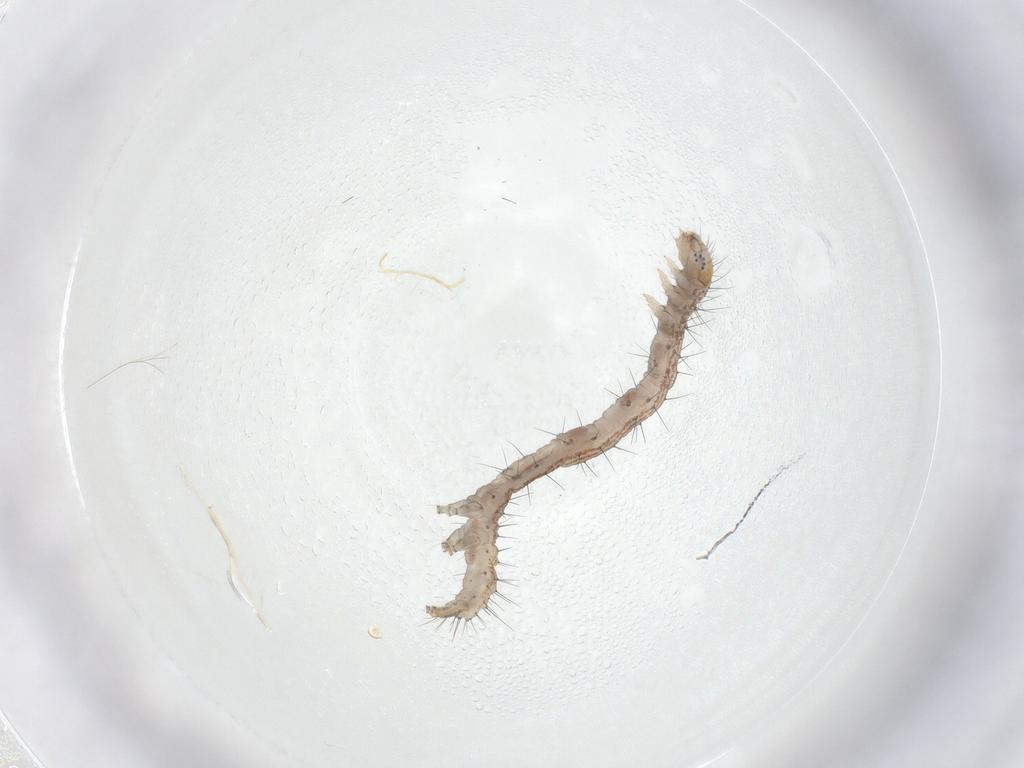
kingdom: Animalia
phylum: Arthropoda
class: Insecta
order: Lepidoptera
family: Erebidae
